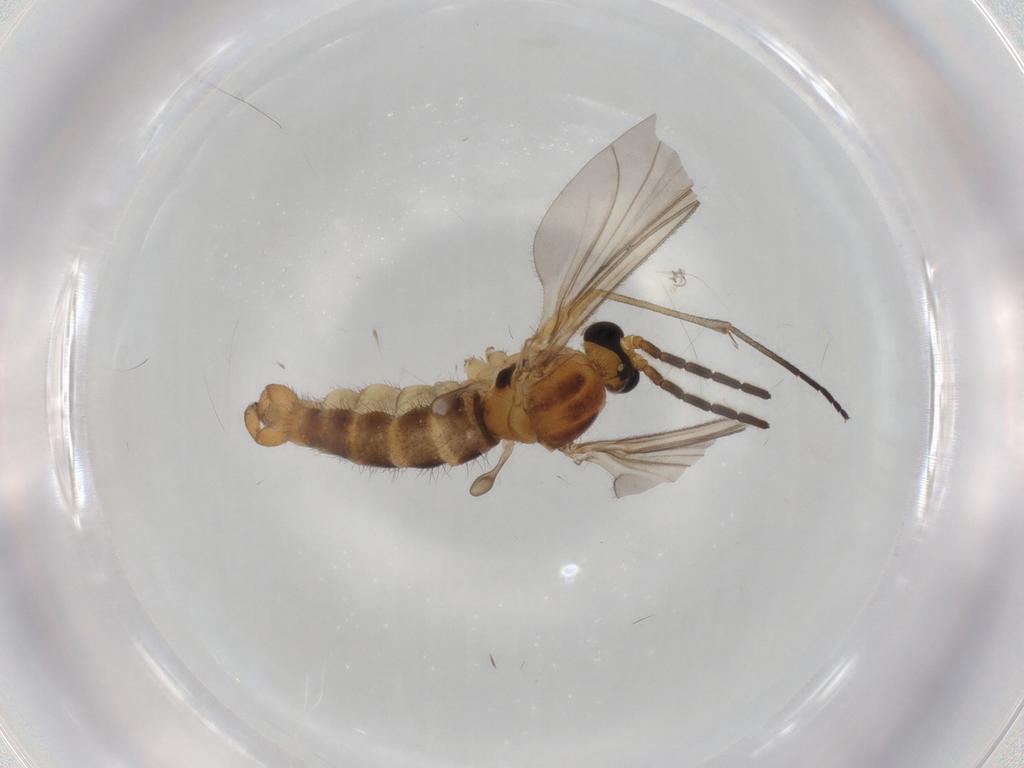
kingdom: Animalia
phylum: Arthropoda
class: Insecta
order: Diptera
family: Sciaridae
